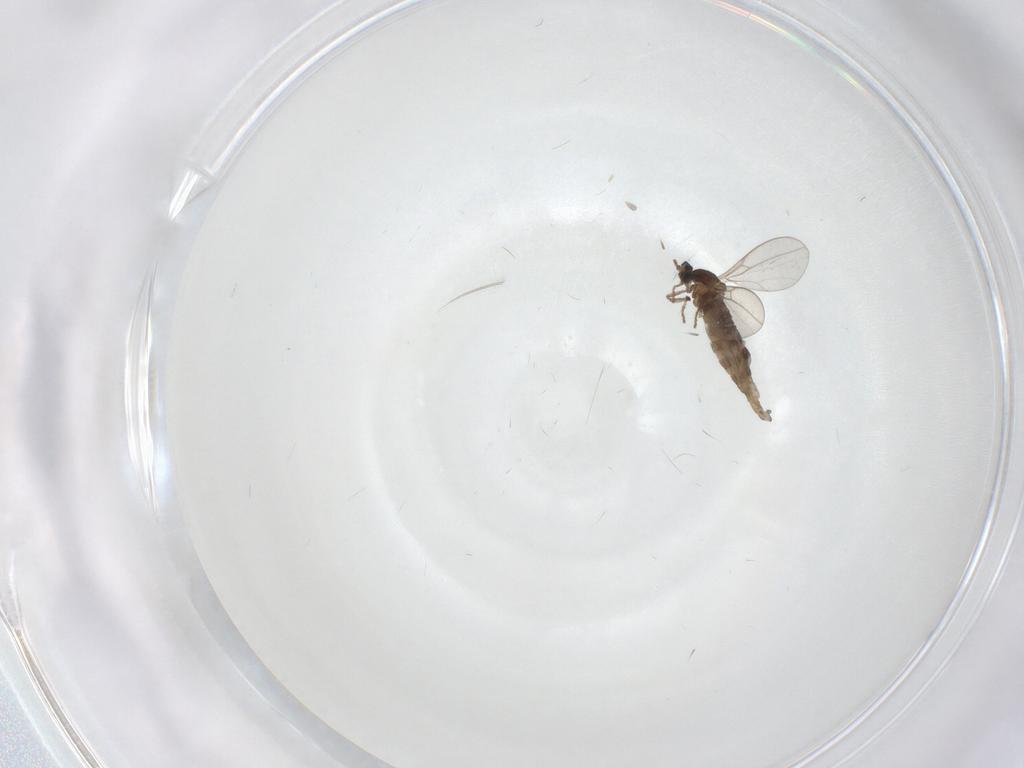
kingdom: Animalia
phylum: Arthropoda
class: Insecta
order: Diptera
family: Cecidomyiidae
